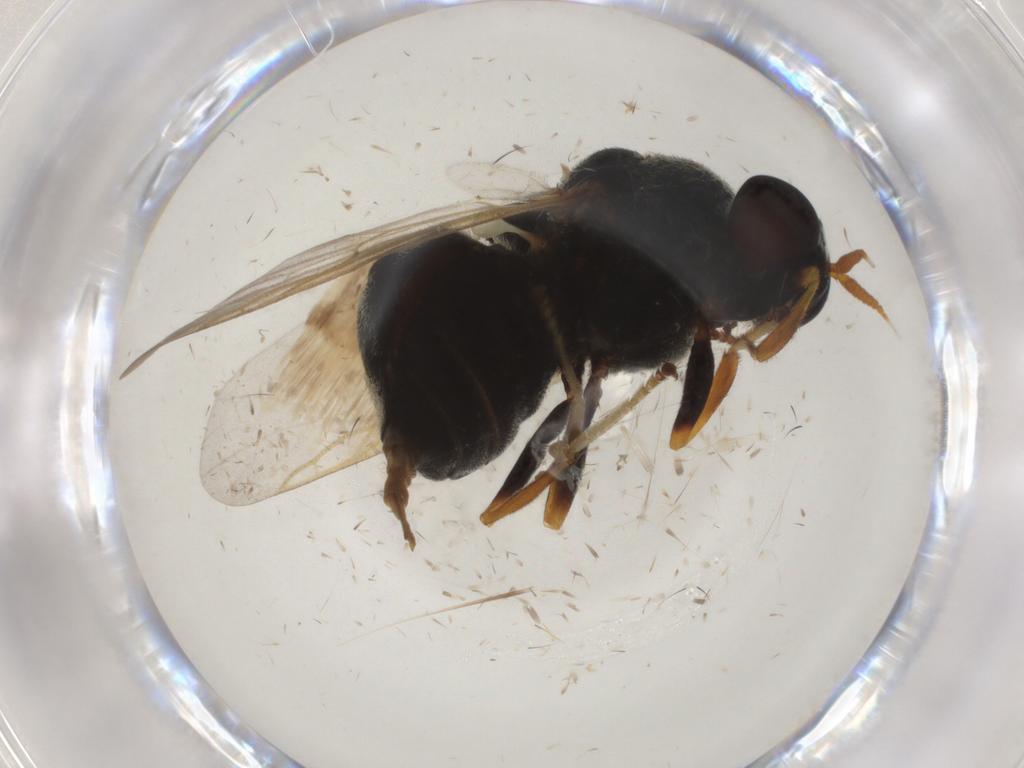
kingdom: Animalia
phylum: Arthropoda
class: Insecta
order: Diptera
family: Stratiomyidae
